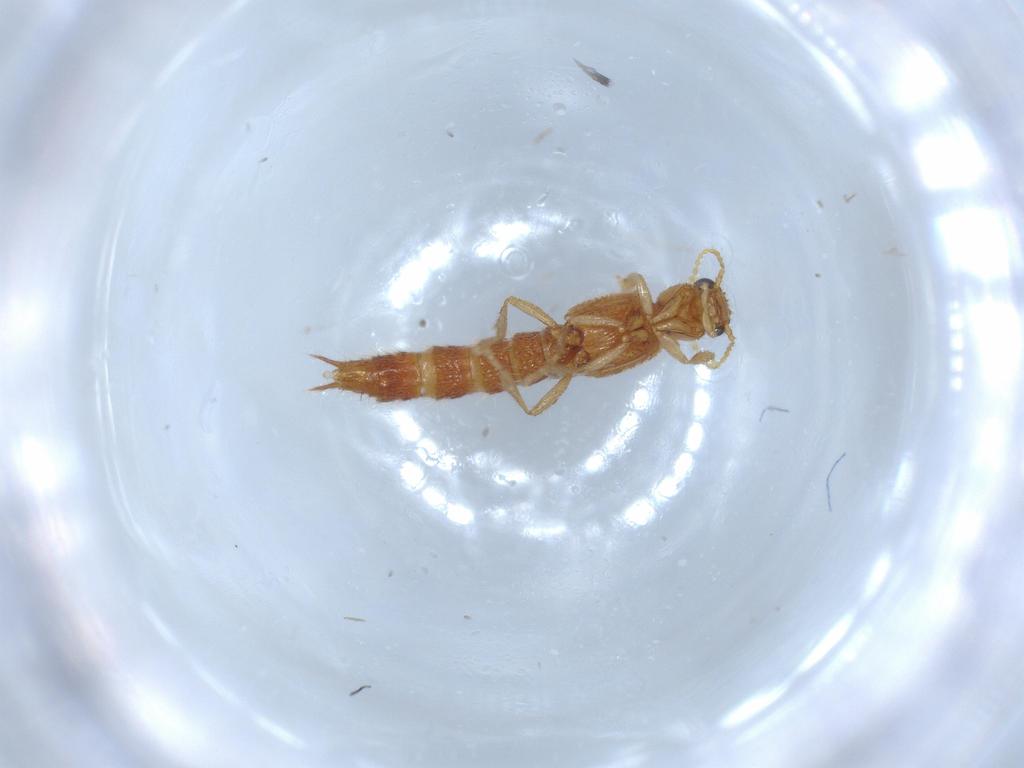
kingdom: Animalia
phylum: Arthropoda
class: Insecta
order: Coleoptera
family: Staphylinidae
